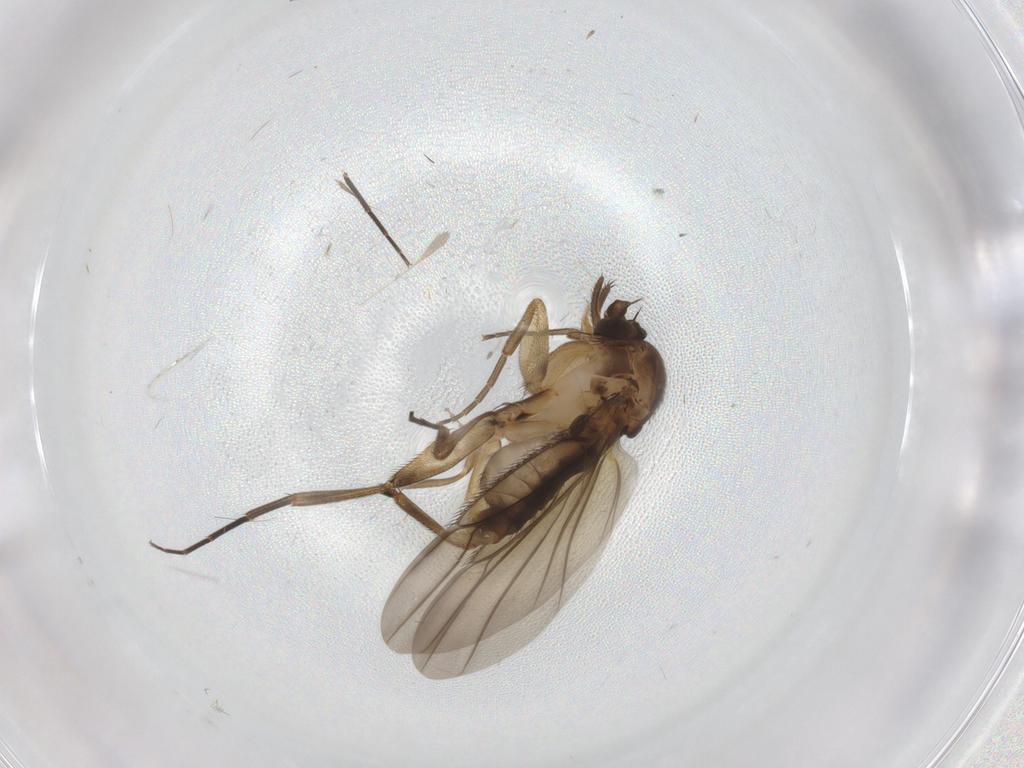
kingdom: Animalia
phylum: Arthropoda
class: Insecta
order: Diptera
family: Phoridae
